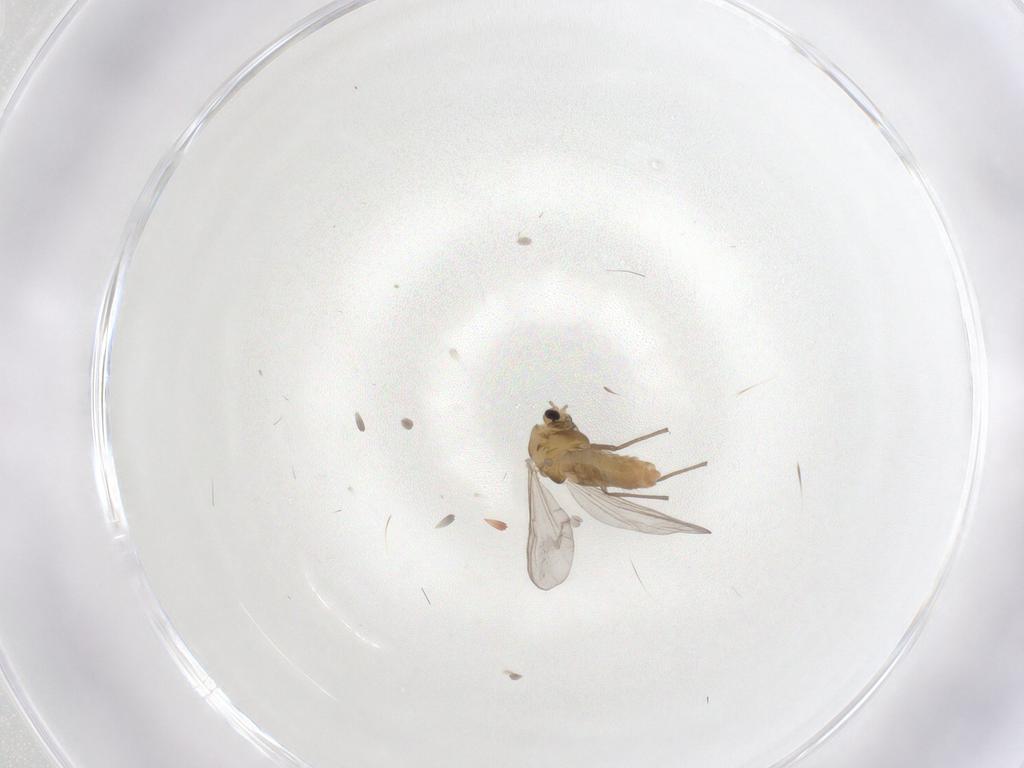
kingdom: Animalia
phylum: Arthropoda
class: Insecta
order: Diptera
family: Chironomidae
